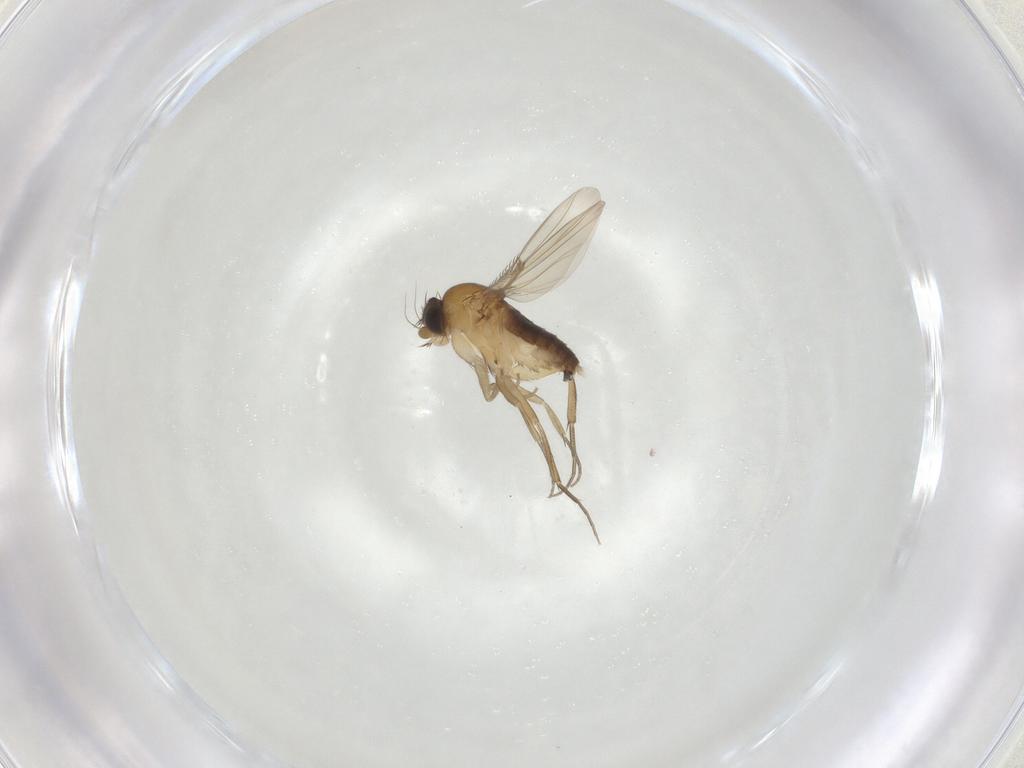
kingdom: Animalia
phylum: Arthropoda
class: Insecta
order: Diptera
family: Phoridae
